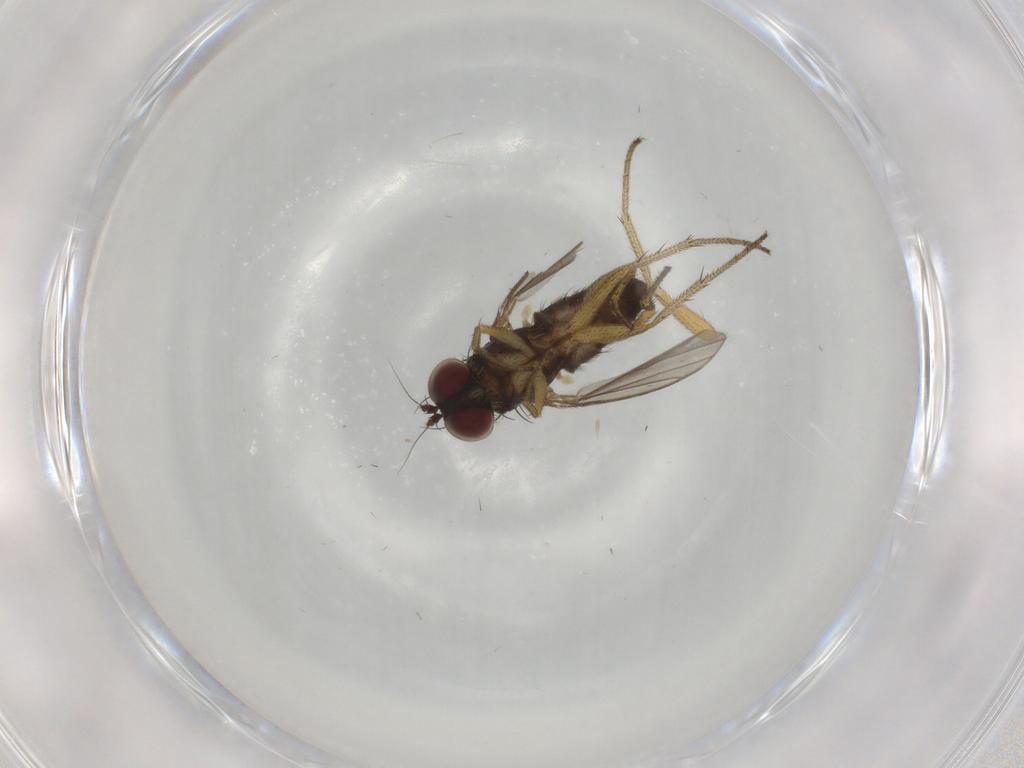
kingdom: Animalia
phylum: Arthropoda
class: Insecta
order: Diptera
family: Dolichopodidae
